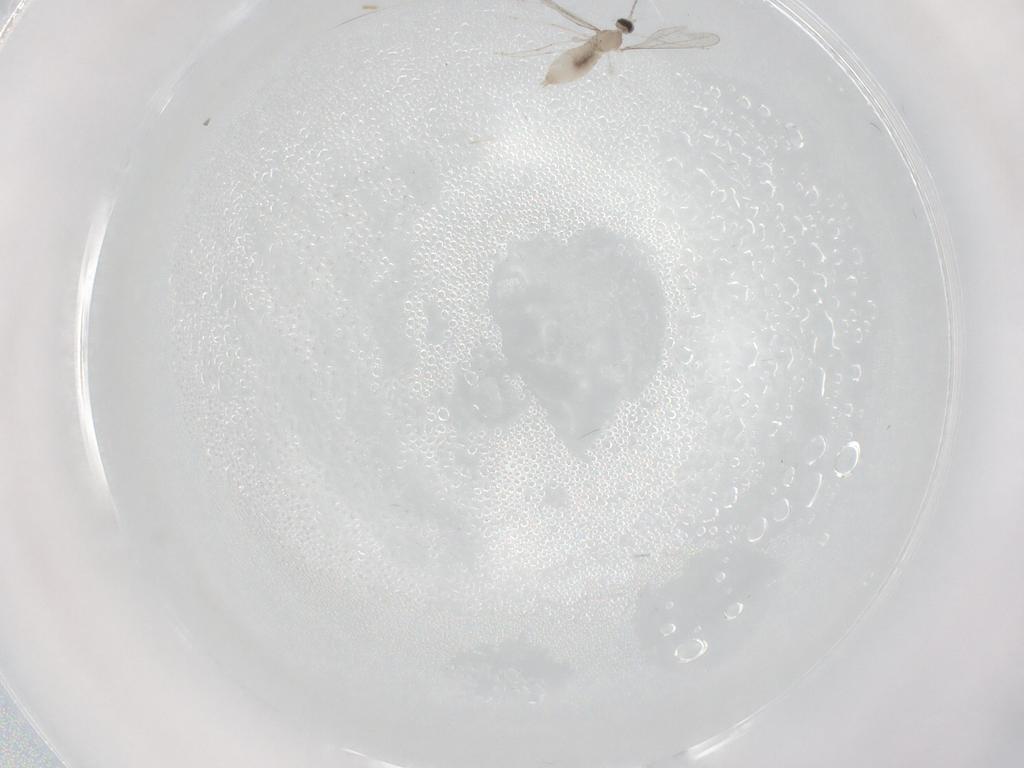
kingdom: Animalia
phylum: Arthropoda
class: Insecta
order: Diptera
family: Cecidomyiidae
